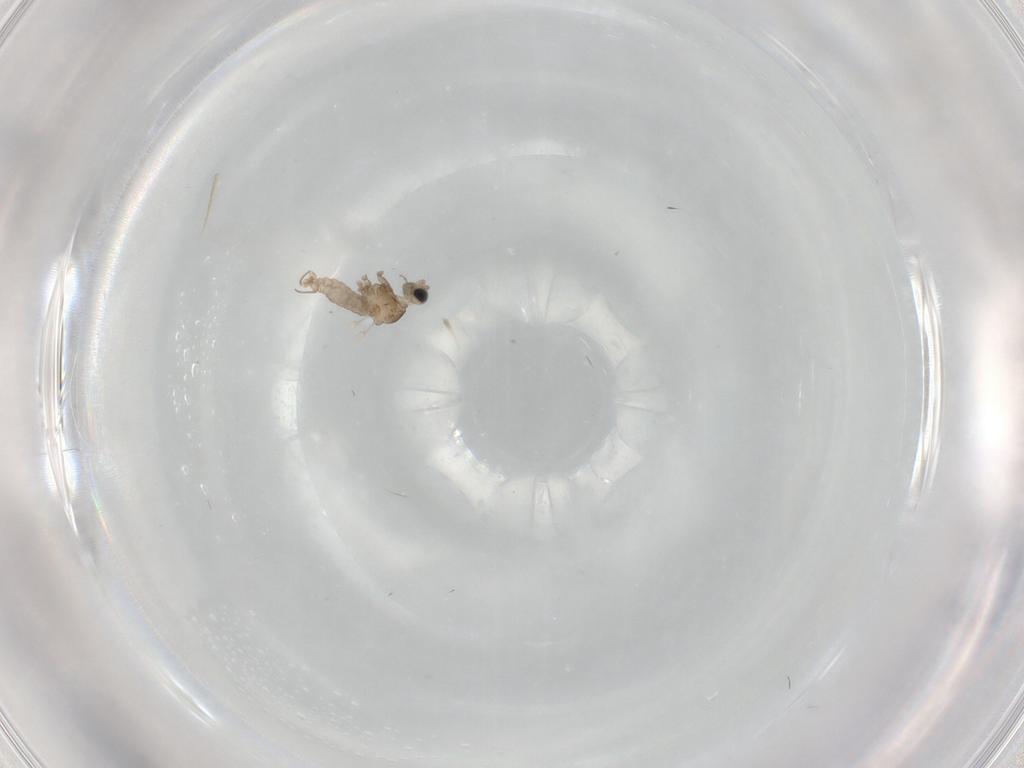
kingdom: Animalia
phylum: Arthropoda
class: Insecta
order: Diptera
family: Cecidomyiidae
